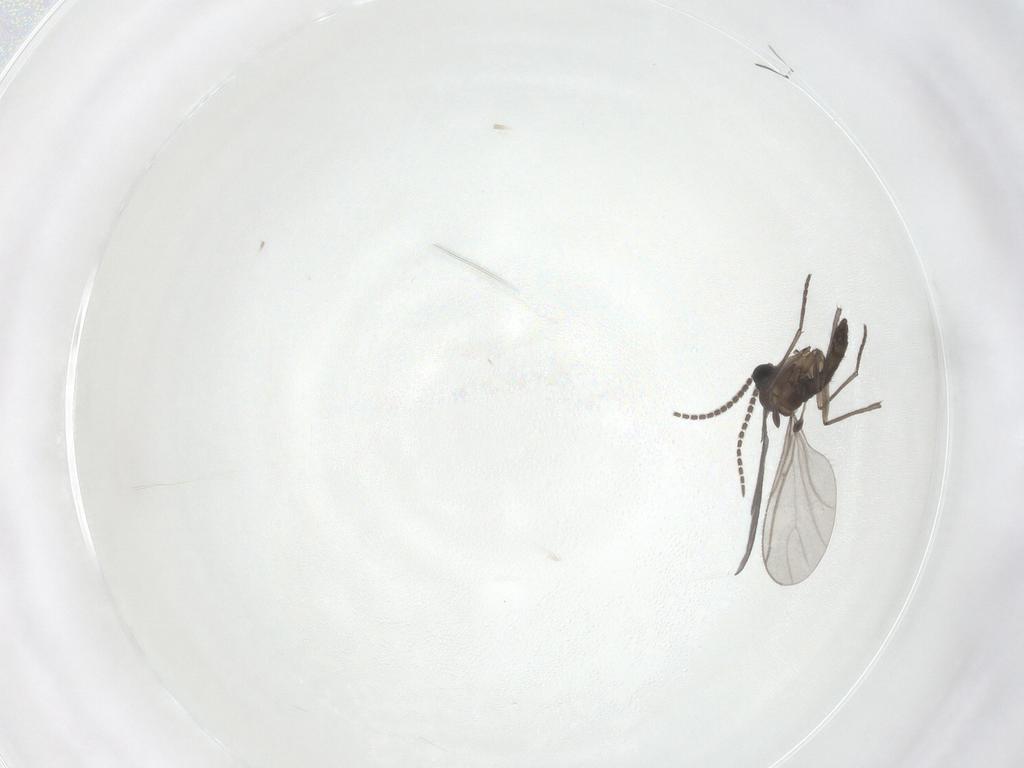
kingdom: Animalia
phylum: Arthropoda
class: Insecta
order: Diptera
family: Sciaridae
